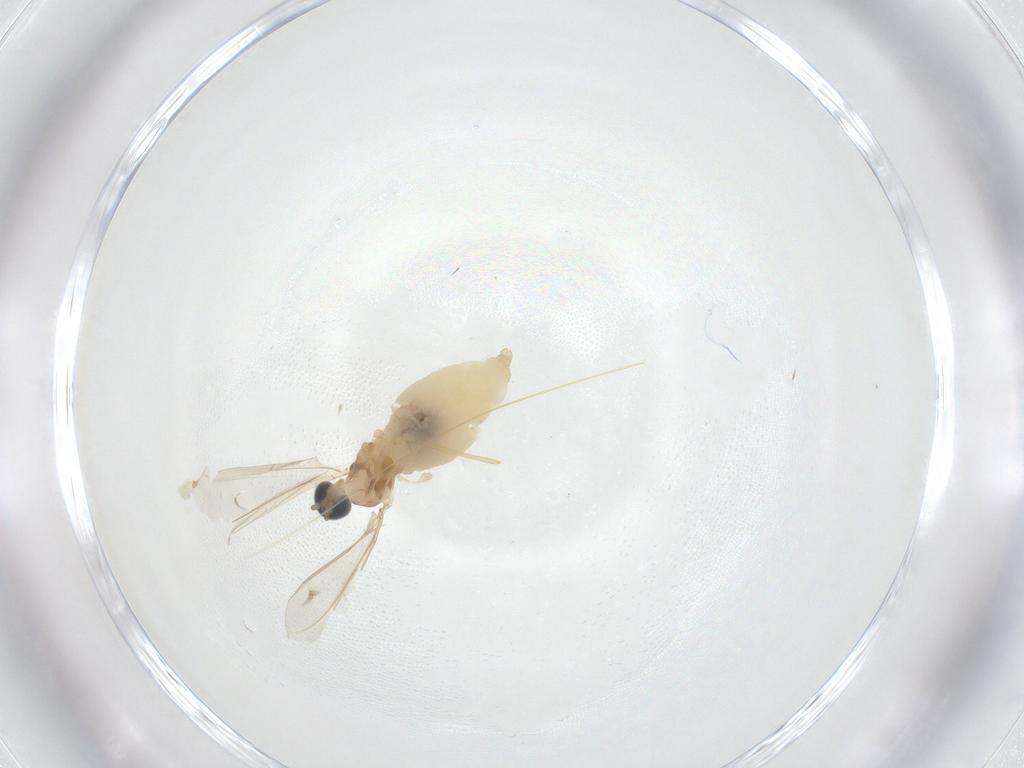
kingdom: Animalia
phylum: Arthropoda
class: Insecta
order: Diptera
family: Cecidomyiidae
